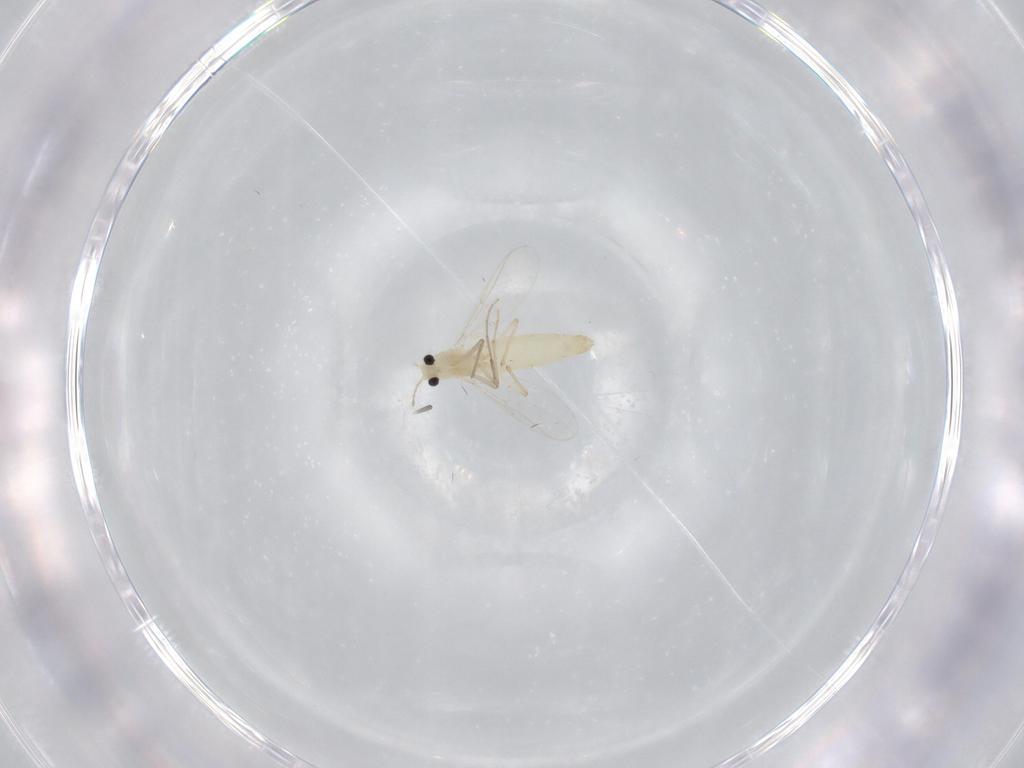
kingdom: Animalia
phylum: Arthropoda
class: Insecta
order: Diptera
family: Chironomidae
